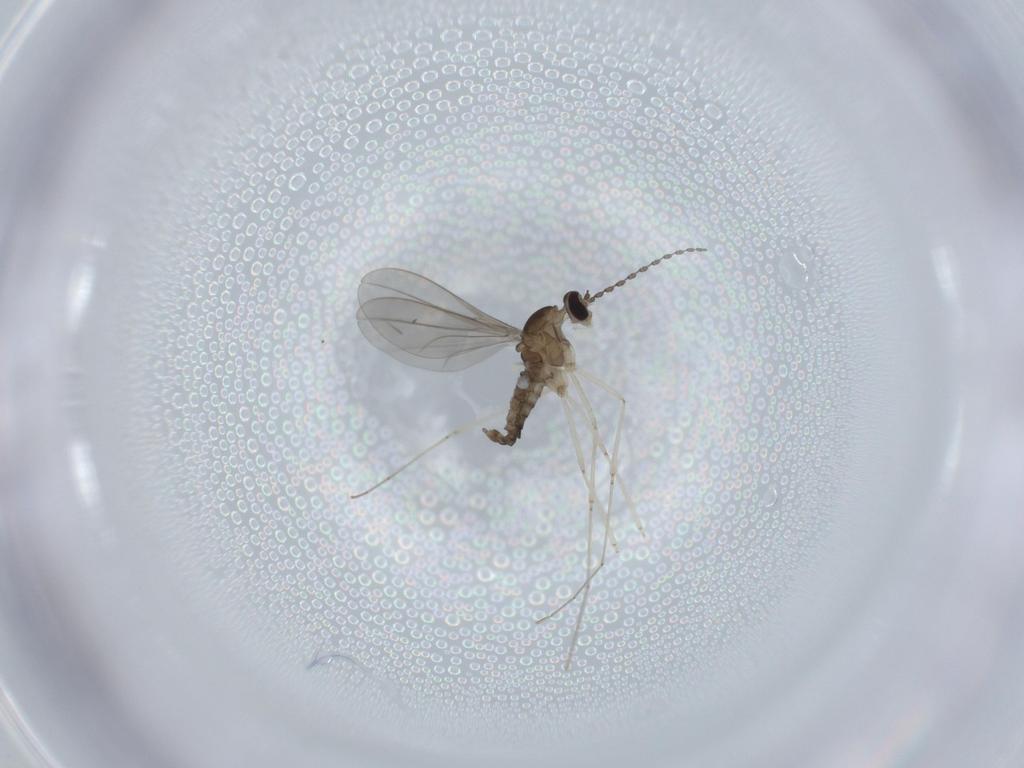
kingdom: Animalia
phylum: Arthropoda
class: Insecta
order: Diptera
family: Cecidomyiidae
